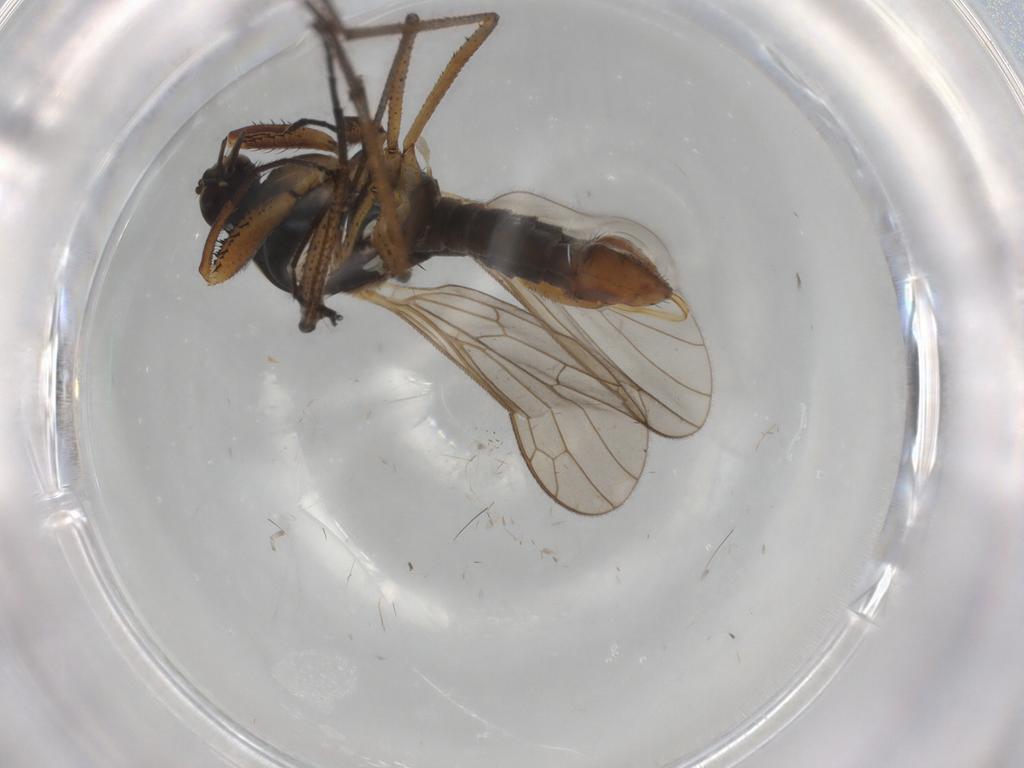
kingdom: Animalia
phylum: Arthropoda
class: Insecta
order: Diptera
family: Empididae
